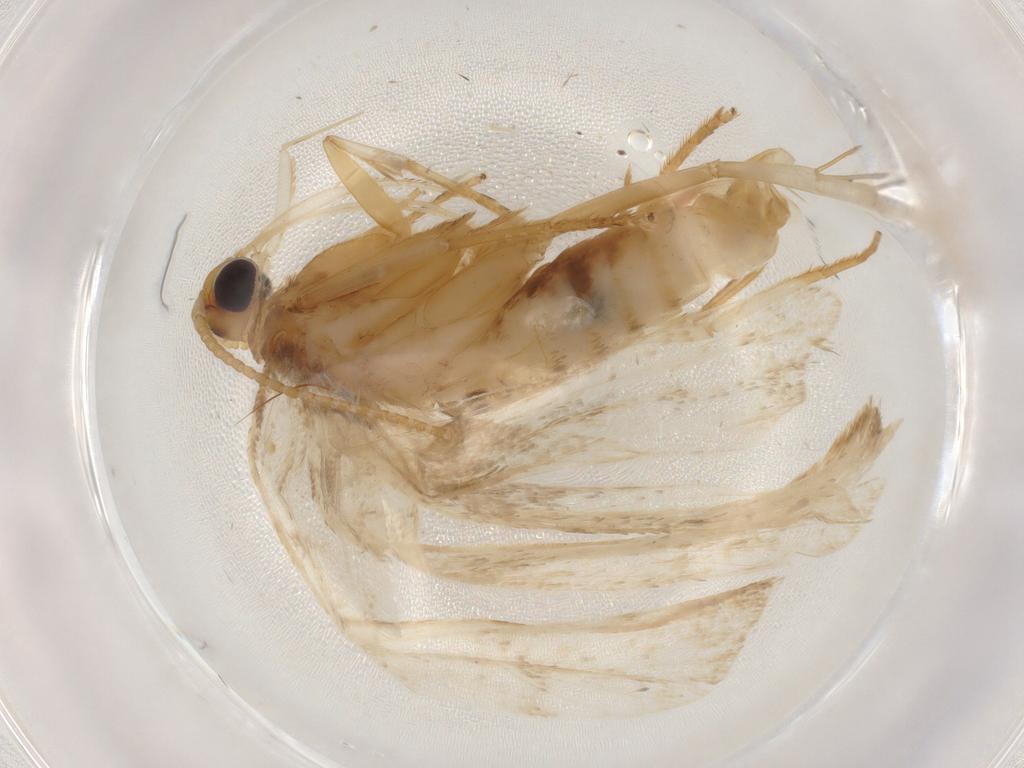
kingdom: Animalia
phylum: Arthropoda
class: Insecta
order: Lepidoptera
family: Lecithoceridae
